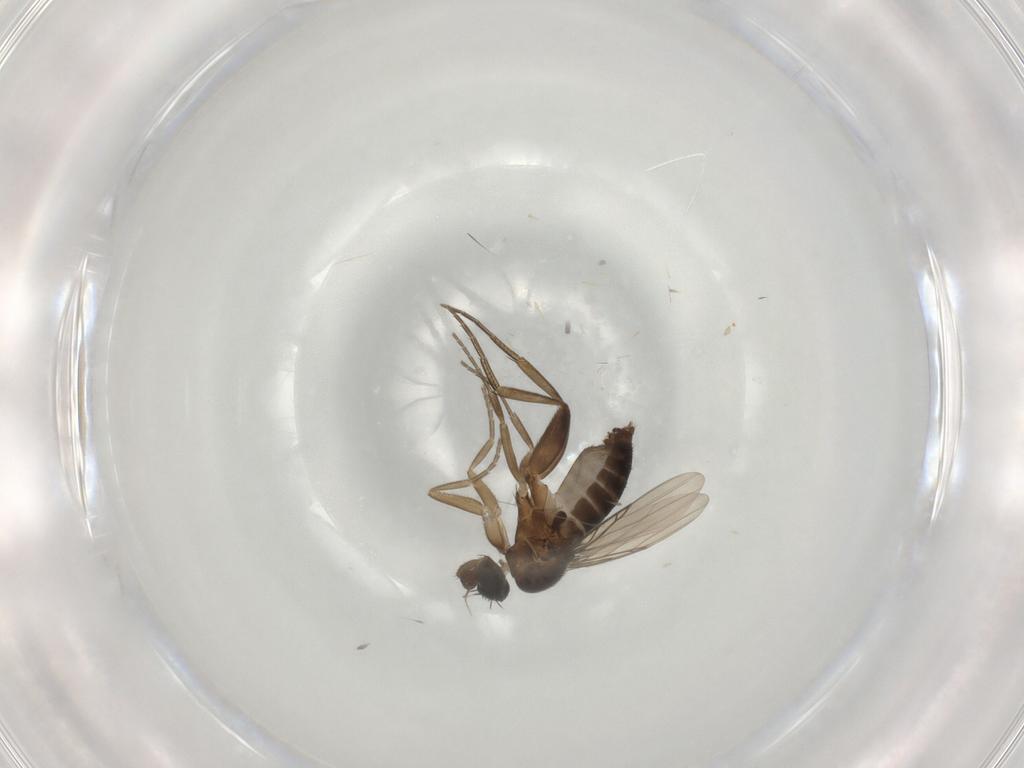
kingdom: Animalia
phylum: Arthropoda
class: Insecta
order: Diptera
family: Phoridae
